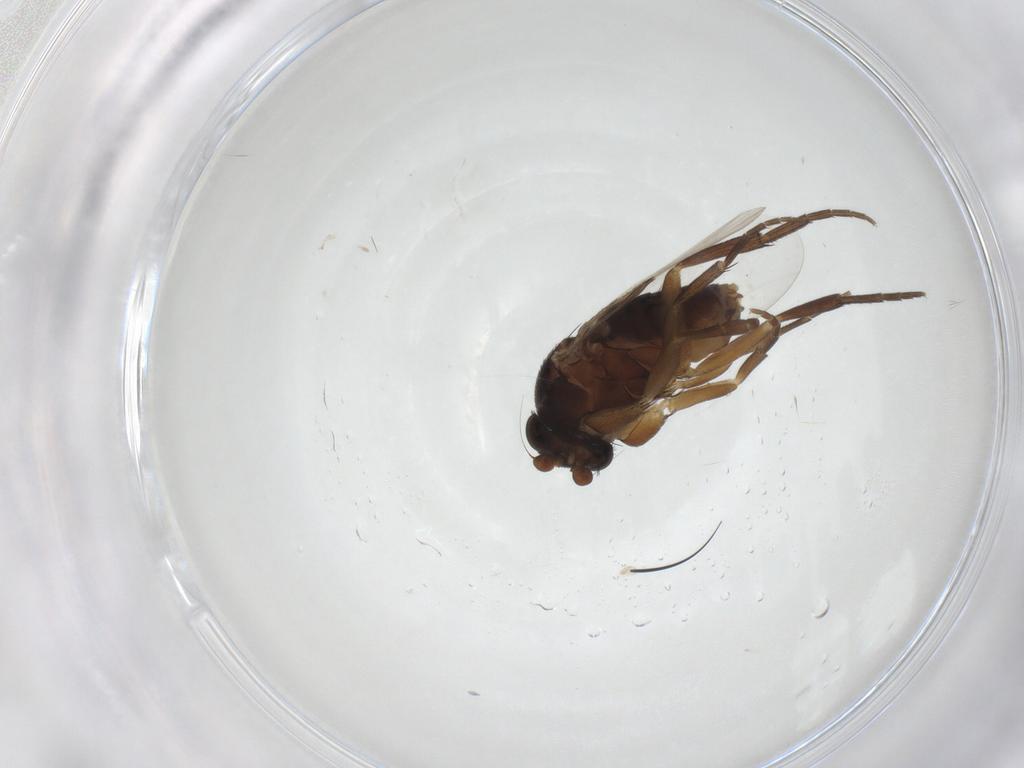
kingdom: Animalia
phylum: Arthropoda
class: Insecta
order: Diptera
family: Phoridae
